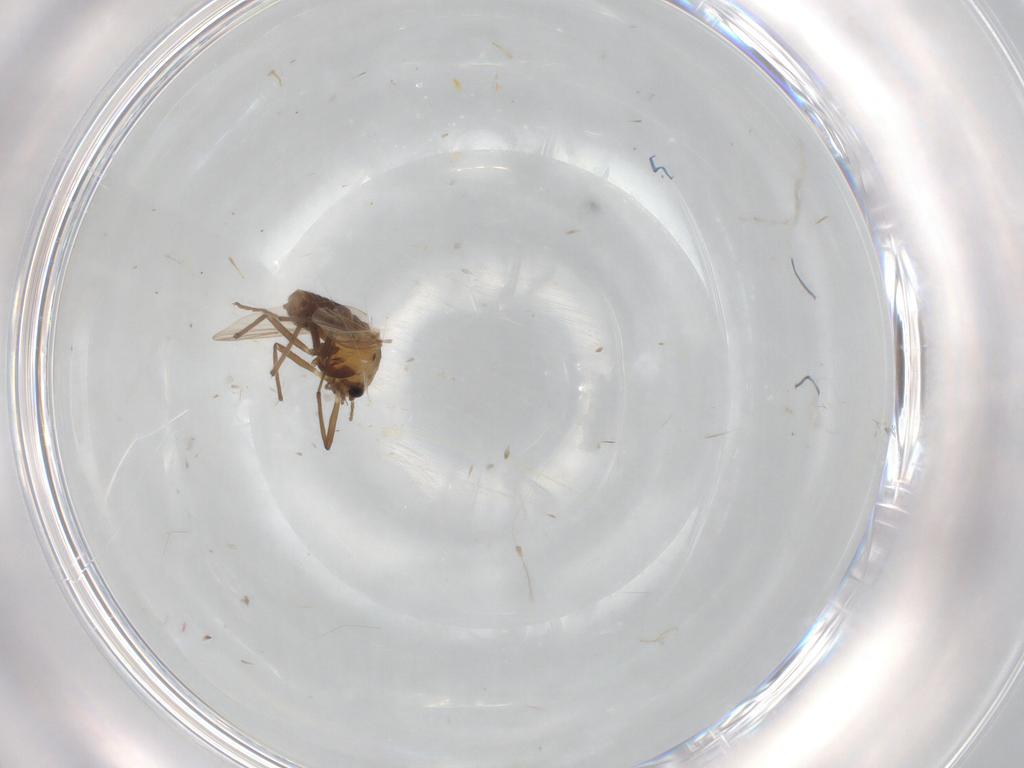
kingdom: Animalia
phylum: Arthropoda
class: Insecta
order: Diptera
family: Chironomidae
